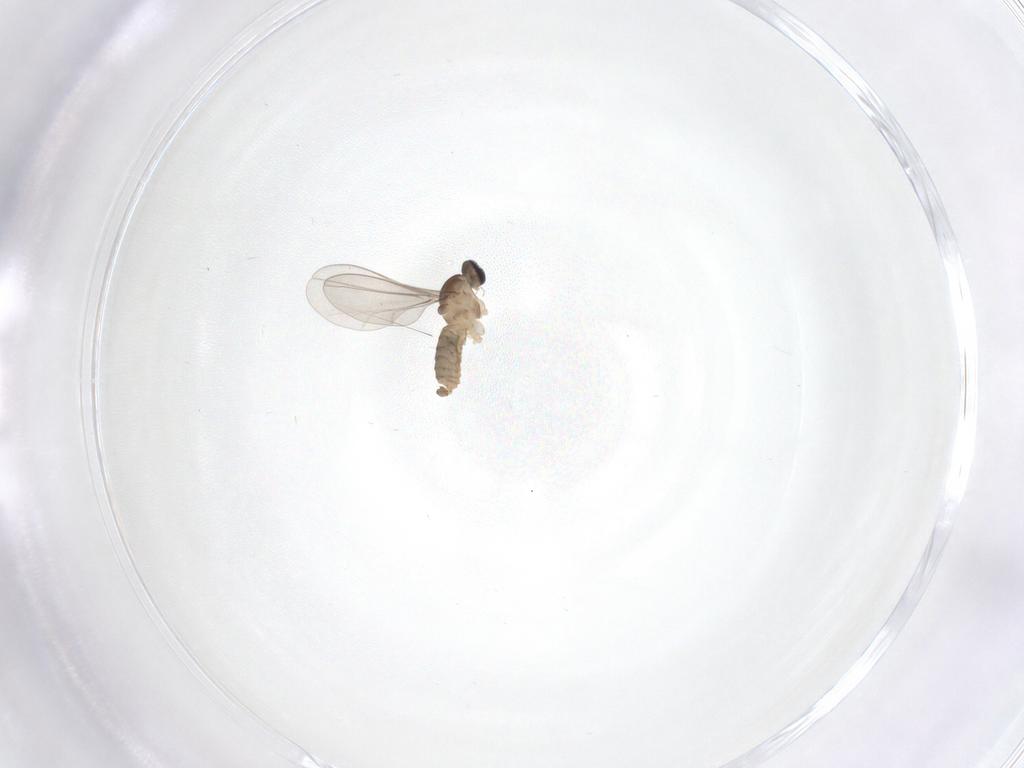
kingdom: Animalia
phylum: Arthropoda
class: Insecta
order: Diptera
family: Cecidomyiidae
